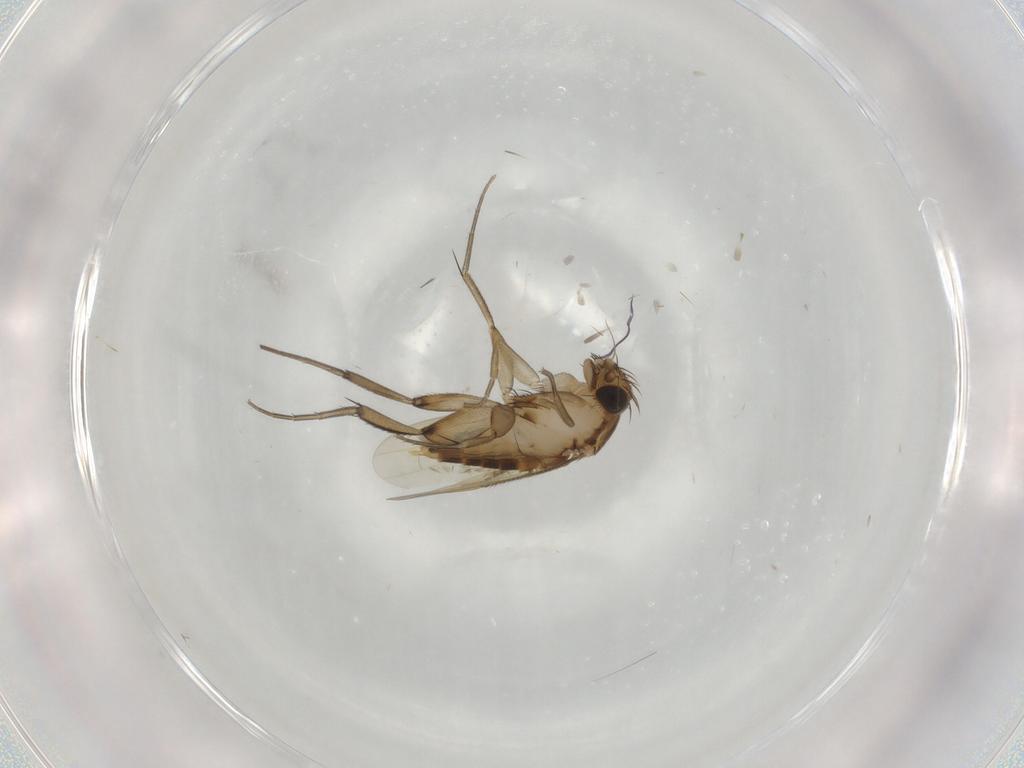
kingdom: Animalia
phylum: Arthropoda
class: Insecta
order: Diptera
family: Phoridae
